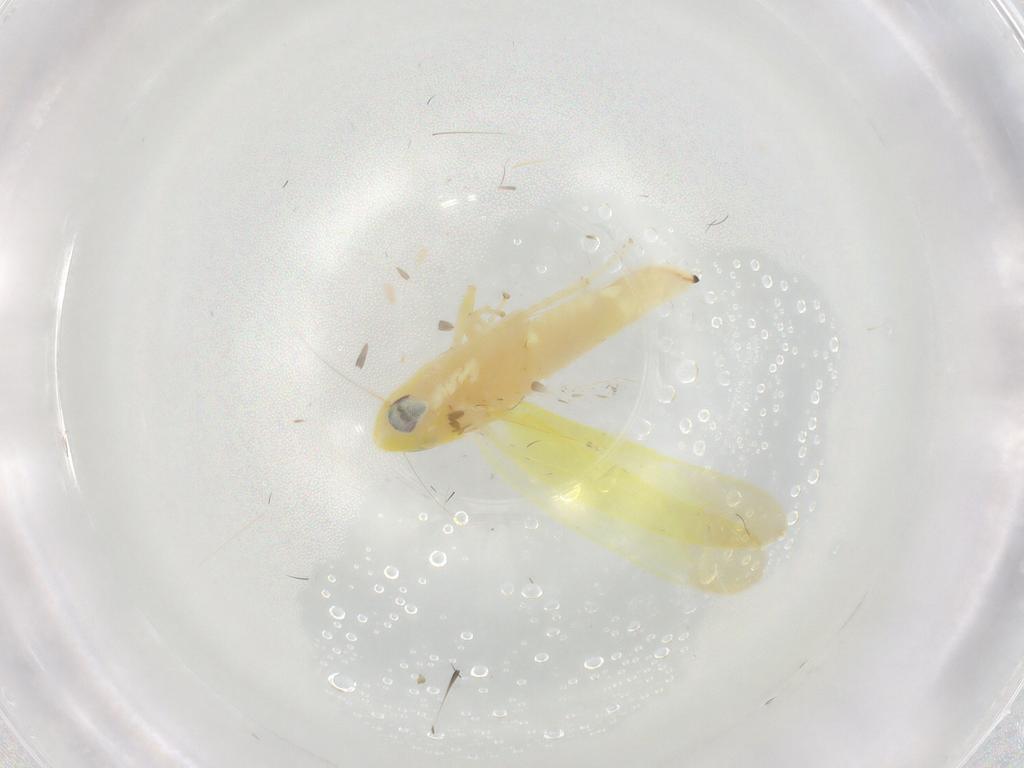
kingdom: Animalia
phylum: Arthropoda
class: Insecta
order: Hemiptera
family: Cicadellidae
